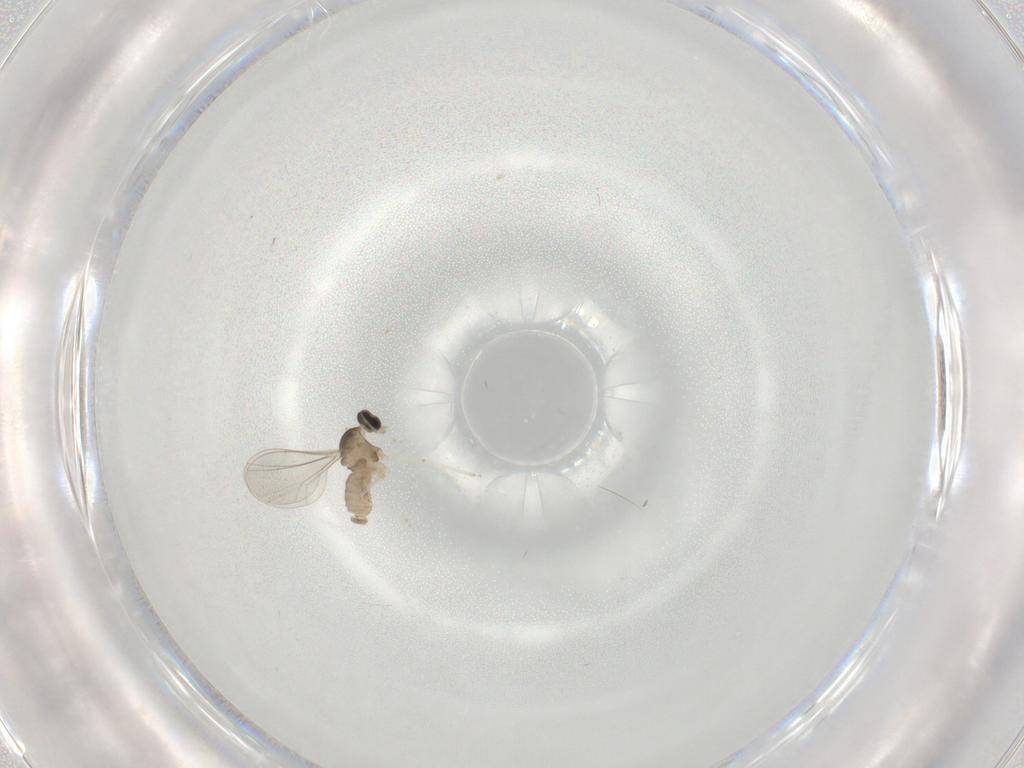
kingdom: Animalia
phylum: Arthropoda
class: Insecta
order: Diptera
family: Cecidomyiidae
